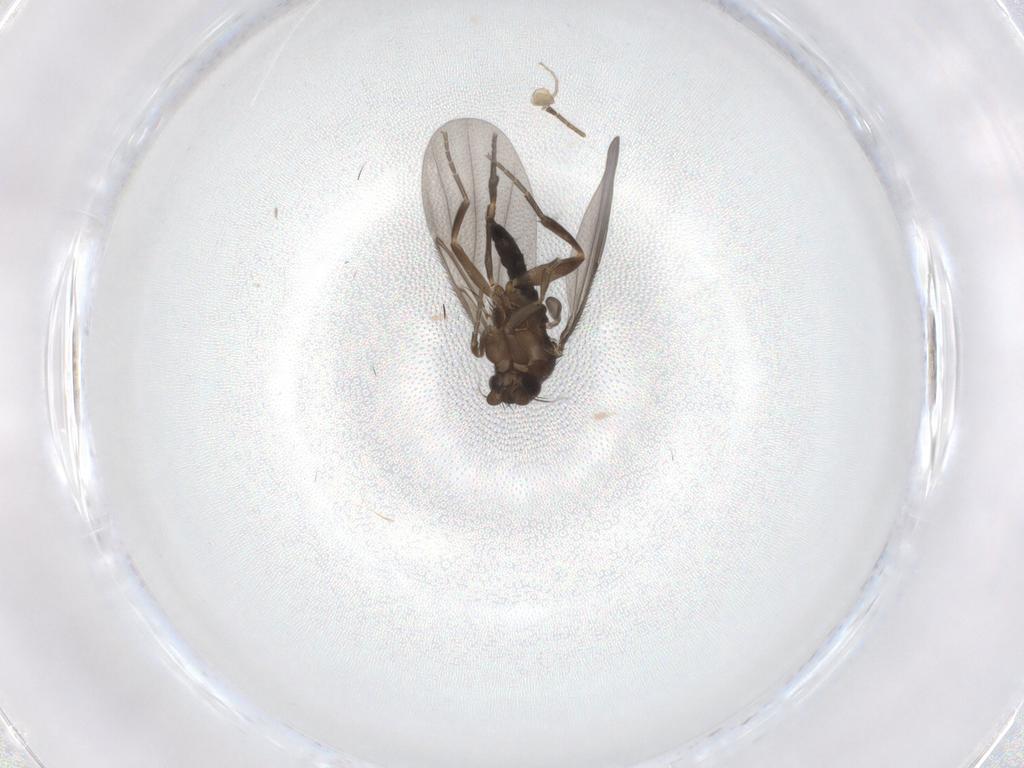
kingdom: Animalia
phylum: Arthropoda
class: Insecta
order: Diptera
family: Phoridae
